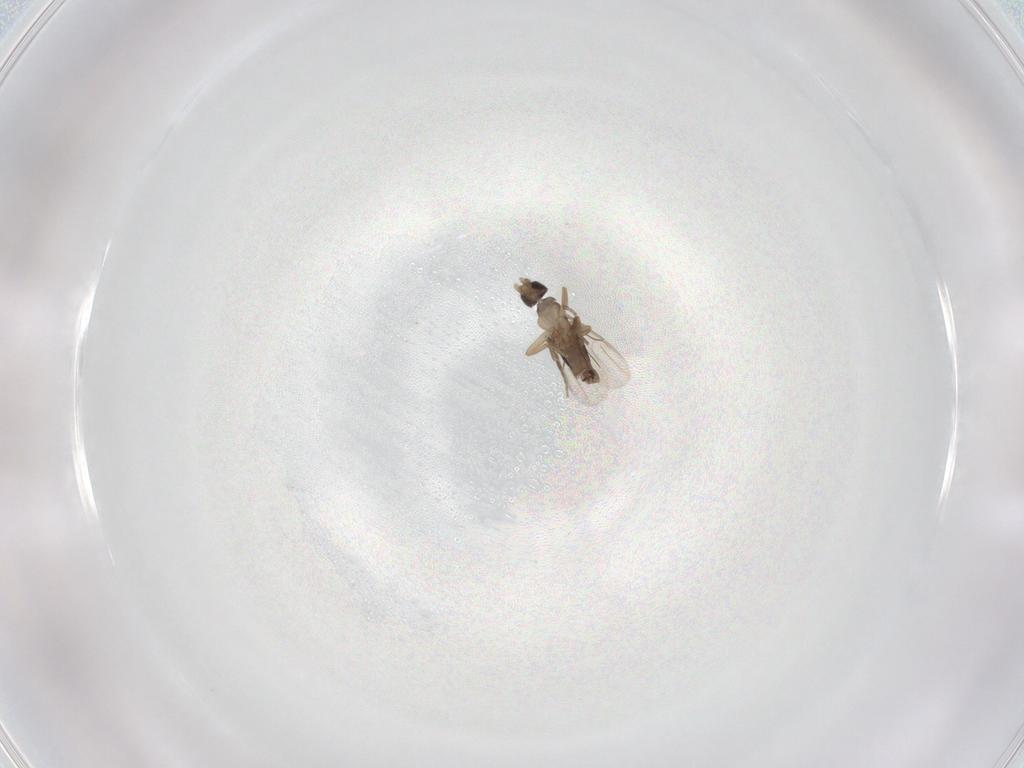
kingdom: Animalia
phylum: Arthropoda
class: Insecta
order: Diptera
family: Phoridae
